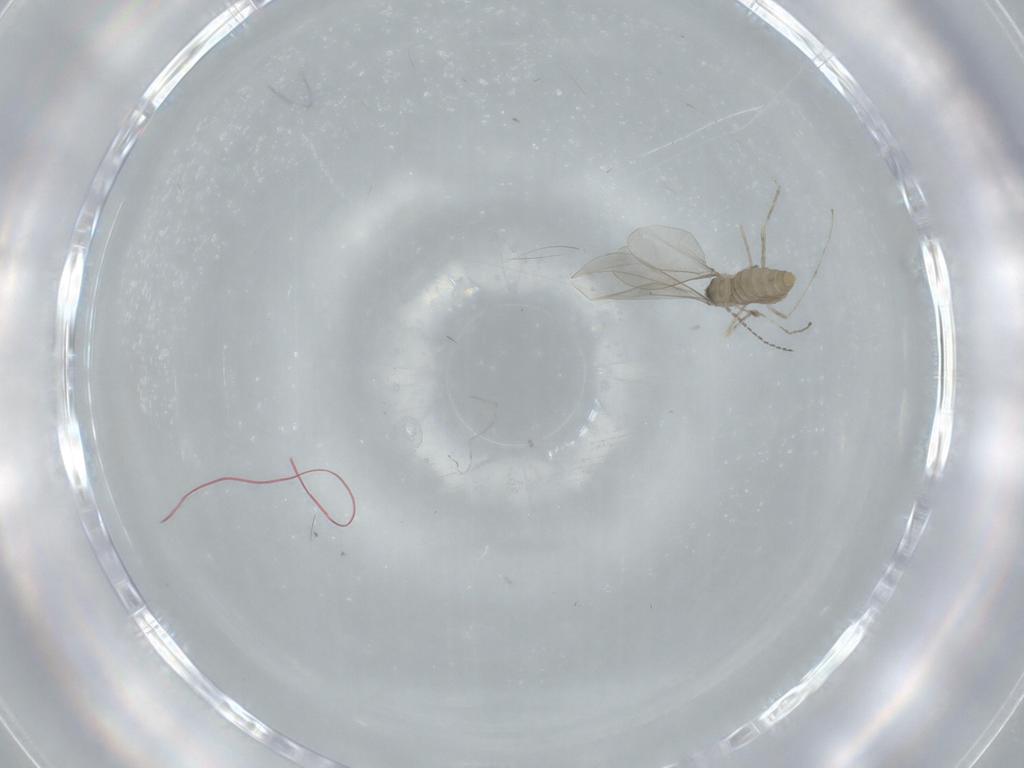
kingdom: Animalia
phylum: Arthropoda
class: Insecta
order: Diptera
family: Cecidomyiidae
